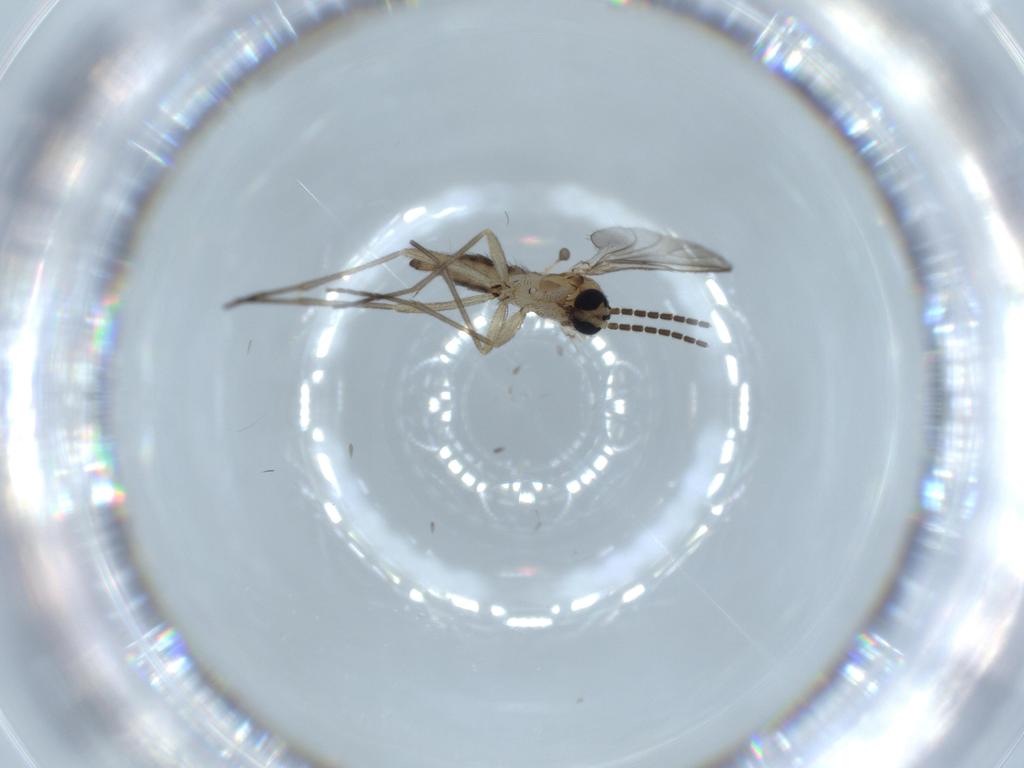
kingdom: Animalia
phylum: Arthropoda
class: Insecta
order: Diptera
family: Sciaridae
